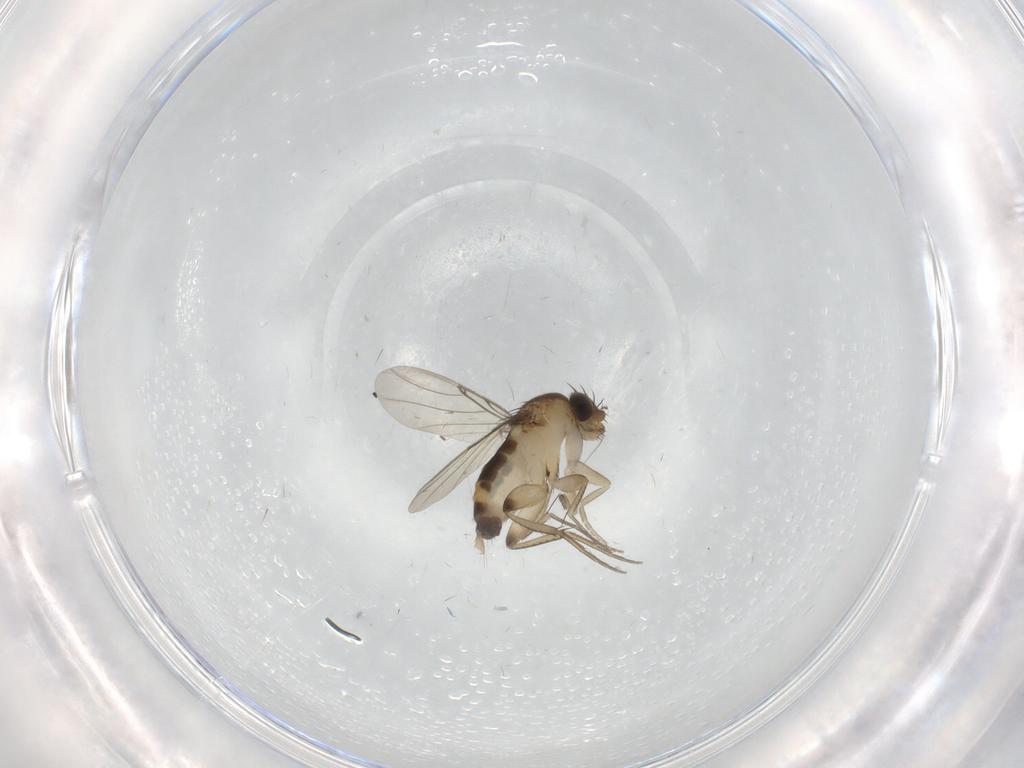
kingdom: Animalia
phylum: Arthropoda
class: Insecta
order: Diptera
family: Phoridae
